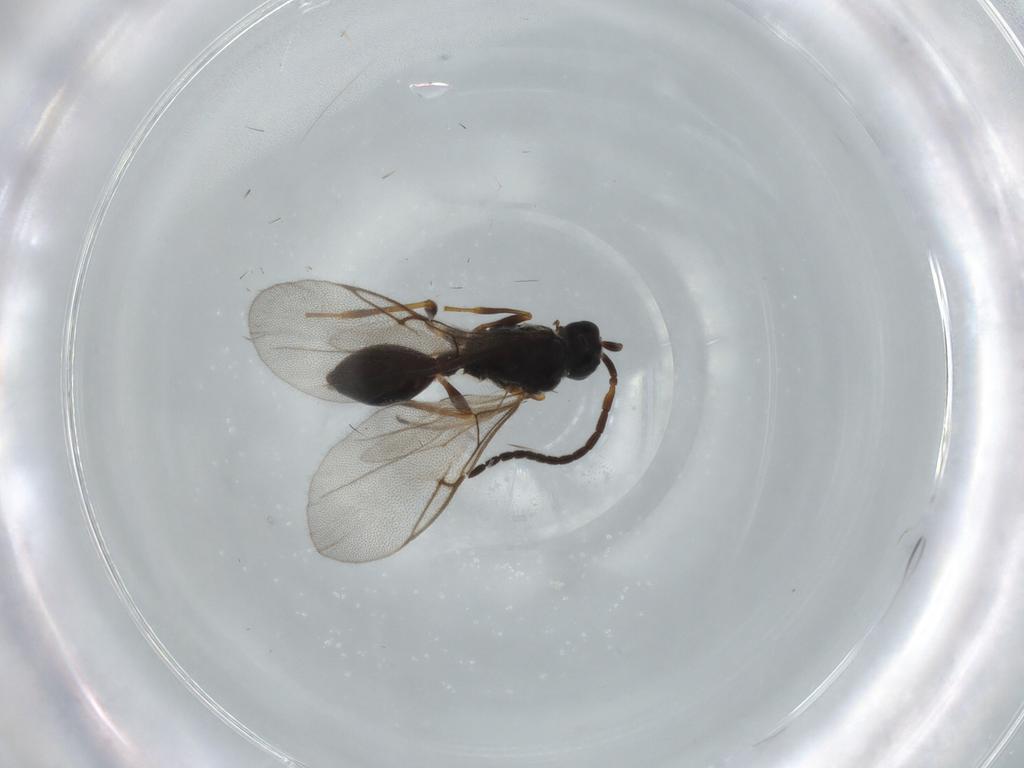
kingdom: Animalia
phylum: Arthropoda
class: Insecta
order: Hymenoptera
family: Diapriidae
